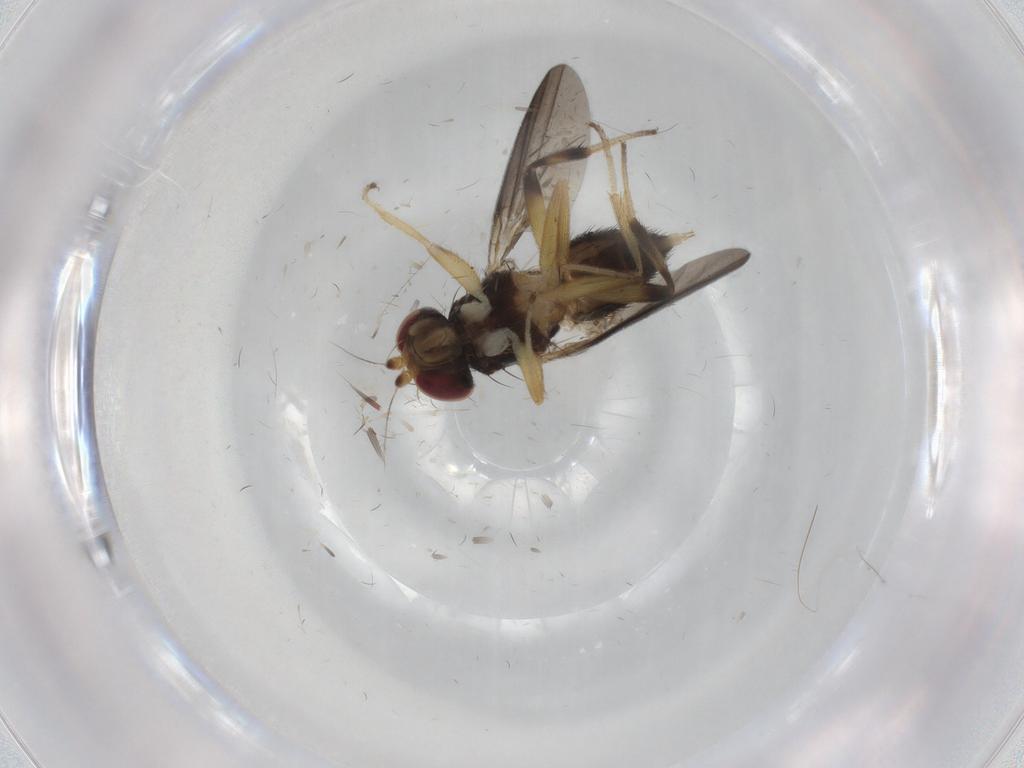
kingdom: Animalia
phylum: Arthropoda
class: Insecta
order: Diptera
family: Clusiidae
